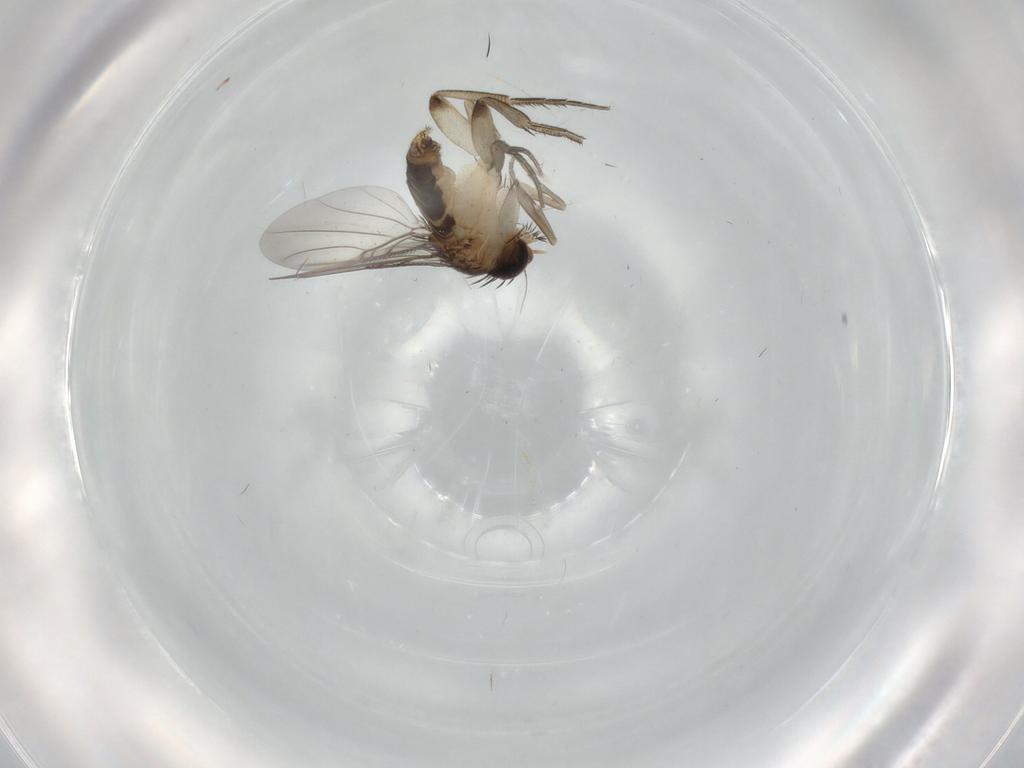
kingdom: Animalia
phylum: Arthropoda
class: Insecta
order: Diptera
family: Phoridae
